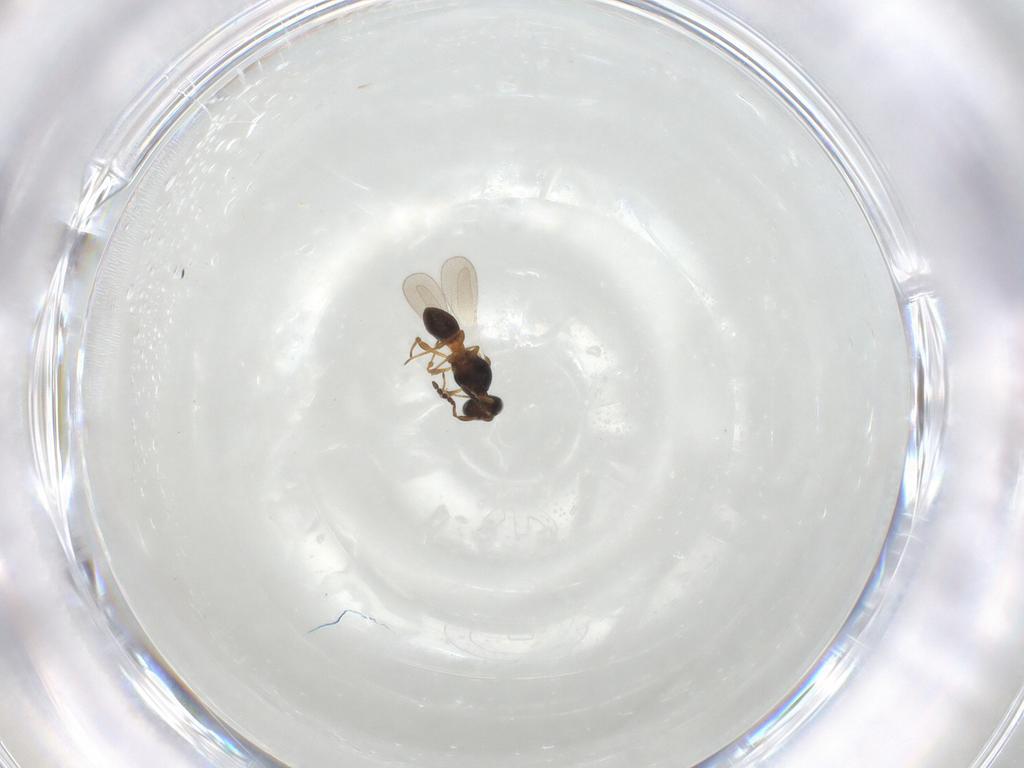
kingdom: Animalia
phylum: Arthropoda
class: Insecta
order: Hymenoptera
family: Platygastridae
